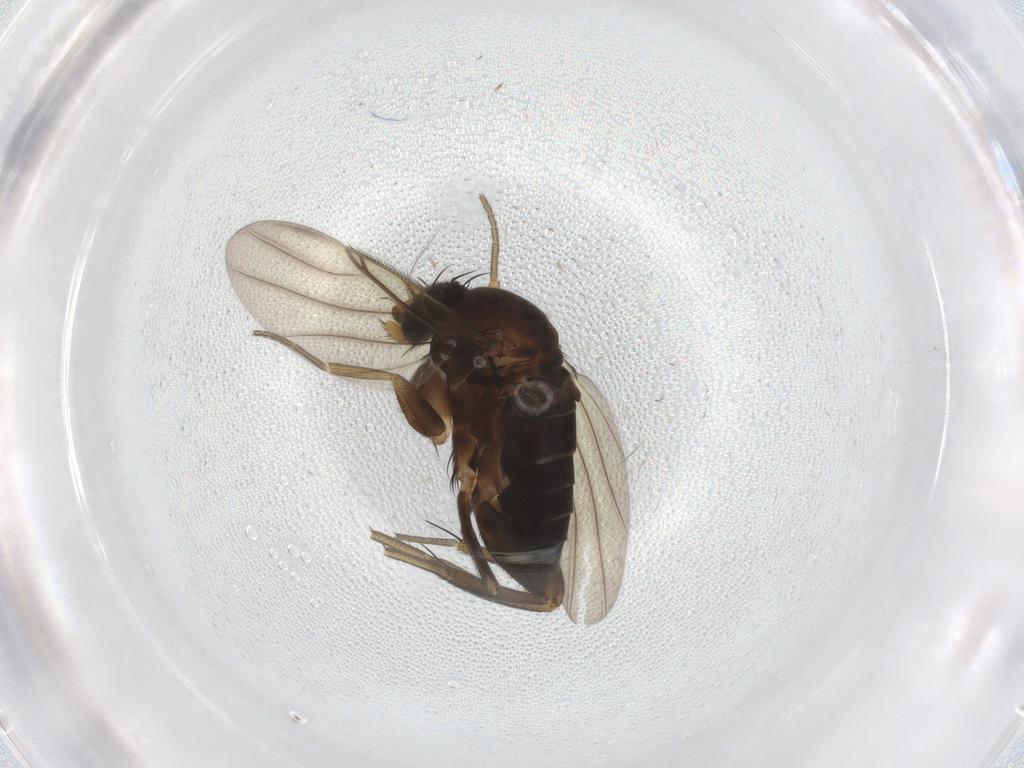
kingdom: Animalia
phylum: Arthropoda
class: Insecta
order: Diptera
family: Phoridae
